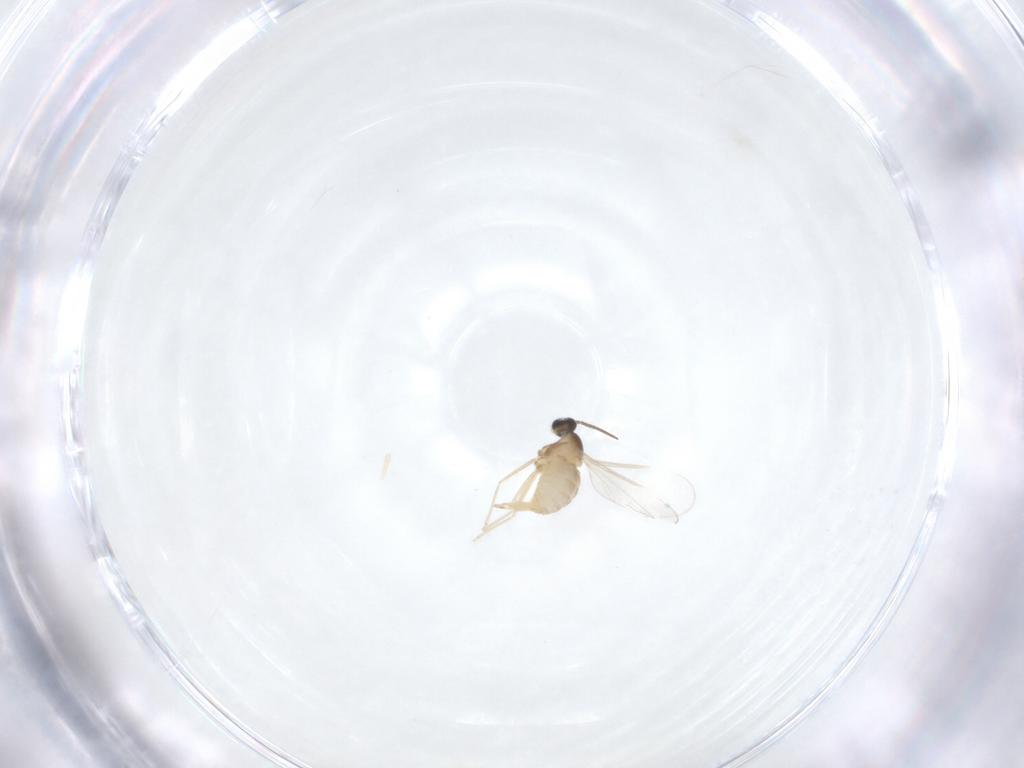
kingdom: Animalia
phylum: Arthropoda
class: Insecta
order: Diptera
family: Cecidomyiidae
